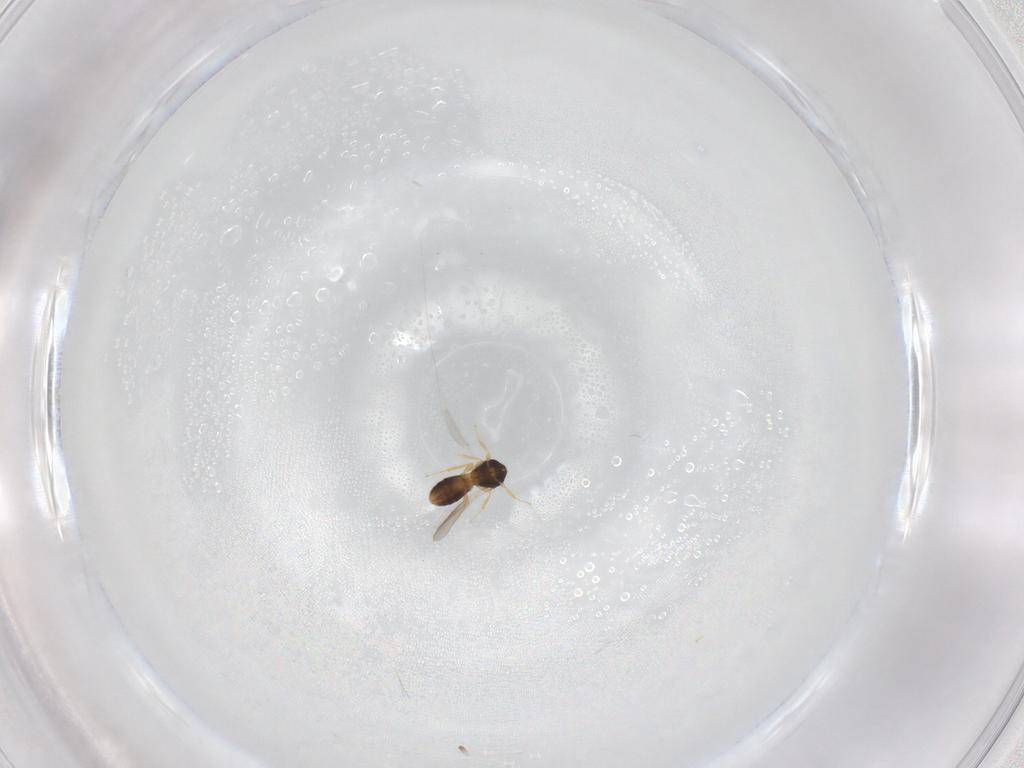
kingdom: Animalia
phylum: Arthropoda
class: Insecta
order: Hymenoptera
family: Platygastridae
